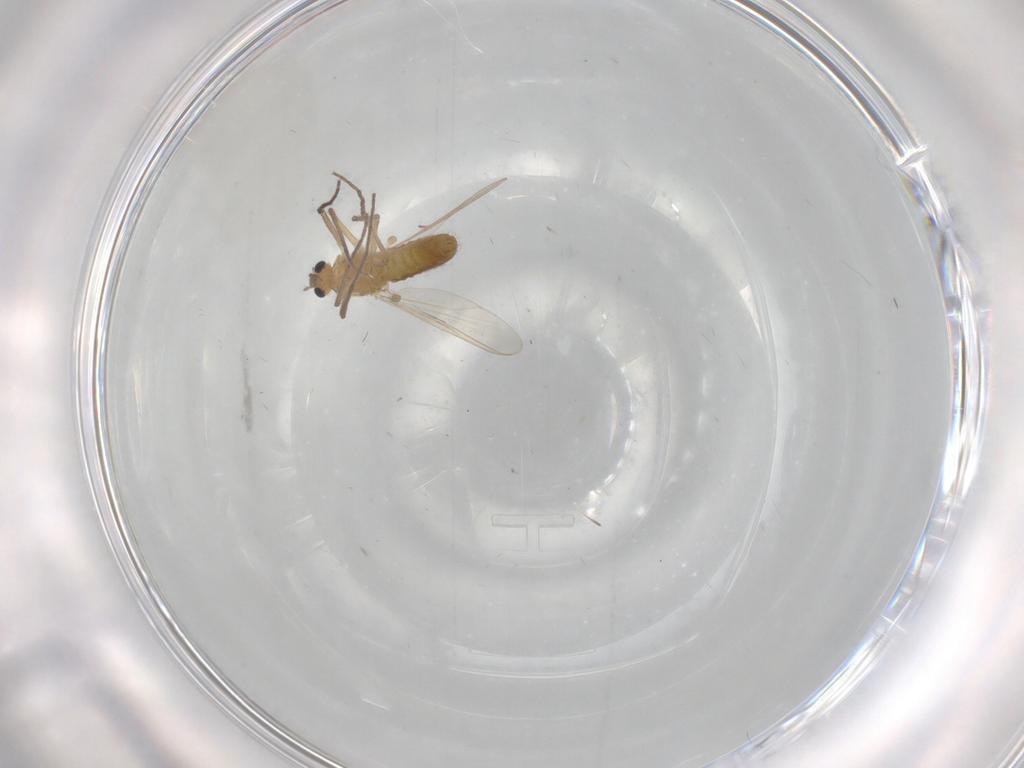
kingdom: Animalia
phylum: Arthropoda
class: Insecta
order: Diptera
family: Chironomidae
